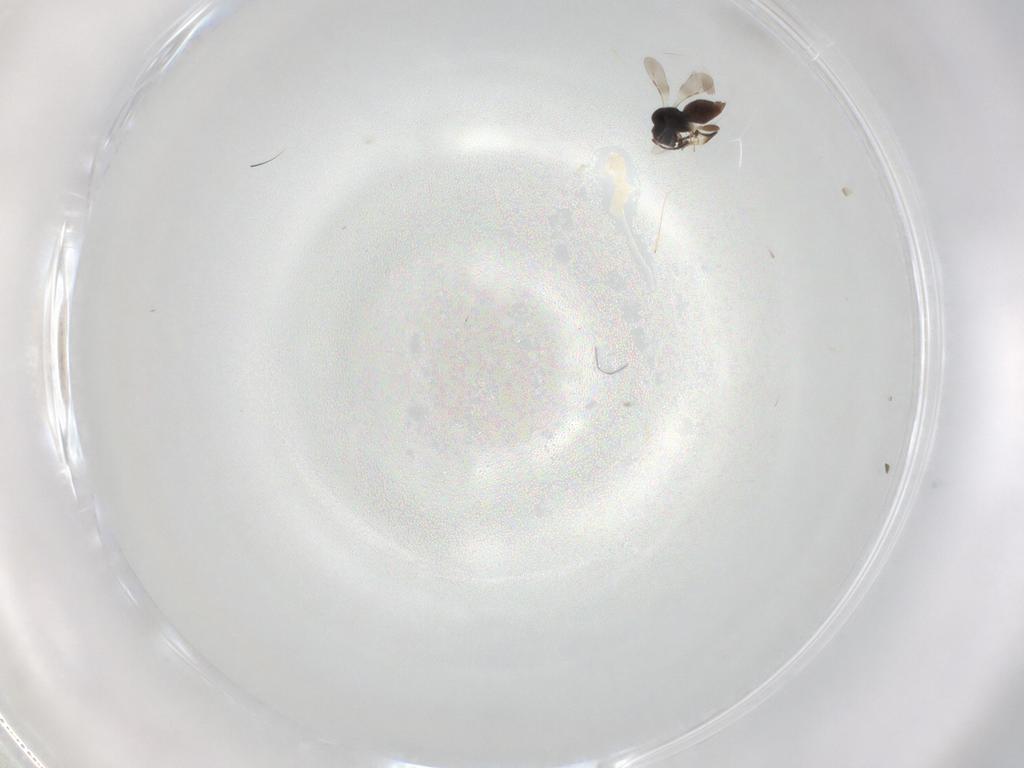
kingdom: Animalia
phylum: Arthropoda
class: Insecta
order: Hymenoptera
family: Ceraphronidae
